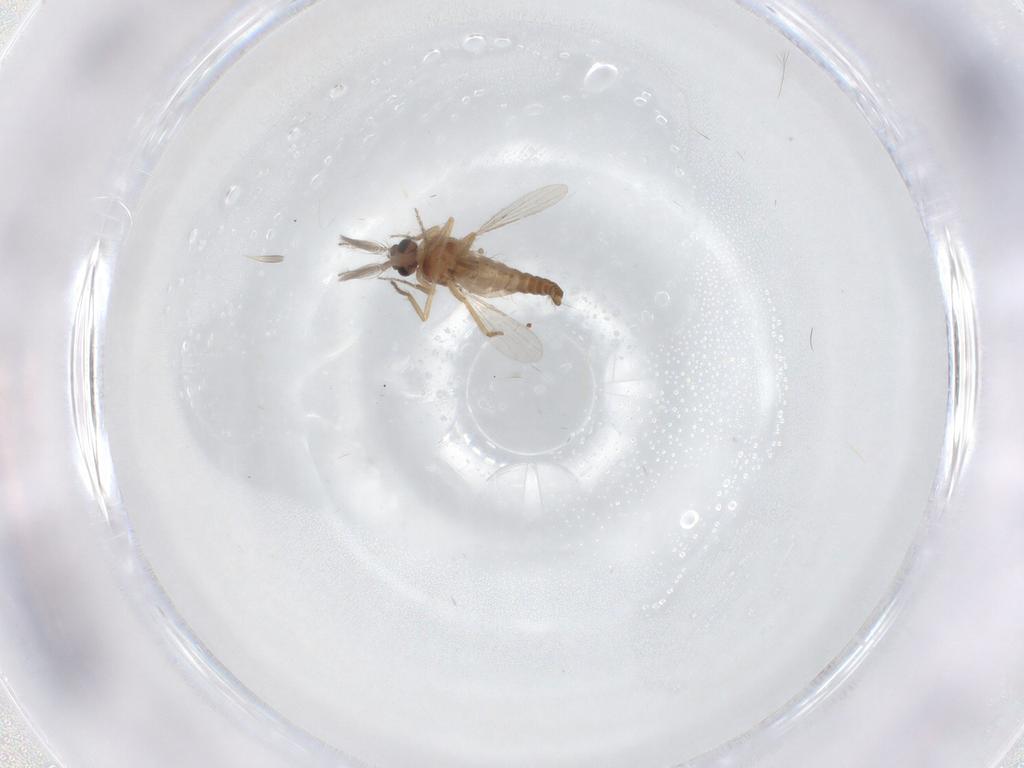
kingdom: Animalia
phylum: Arthropoda
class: Insecta
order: Diptera
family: Ceratopogonidae
